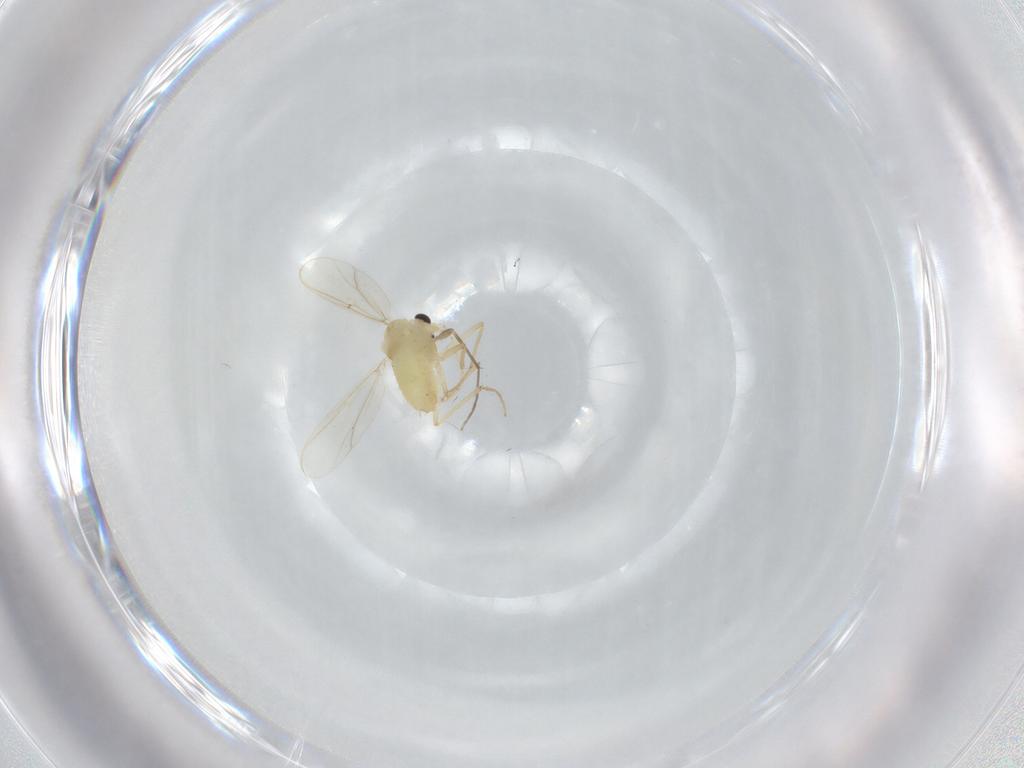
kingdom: Animalia
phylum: Arthropoda
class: Insecta
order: Diptera
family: Chironomidae
